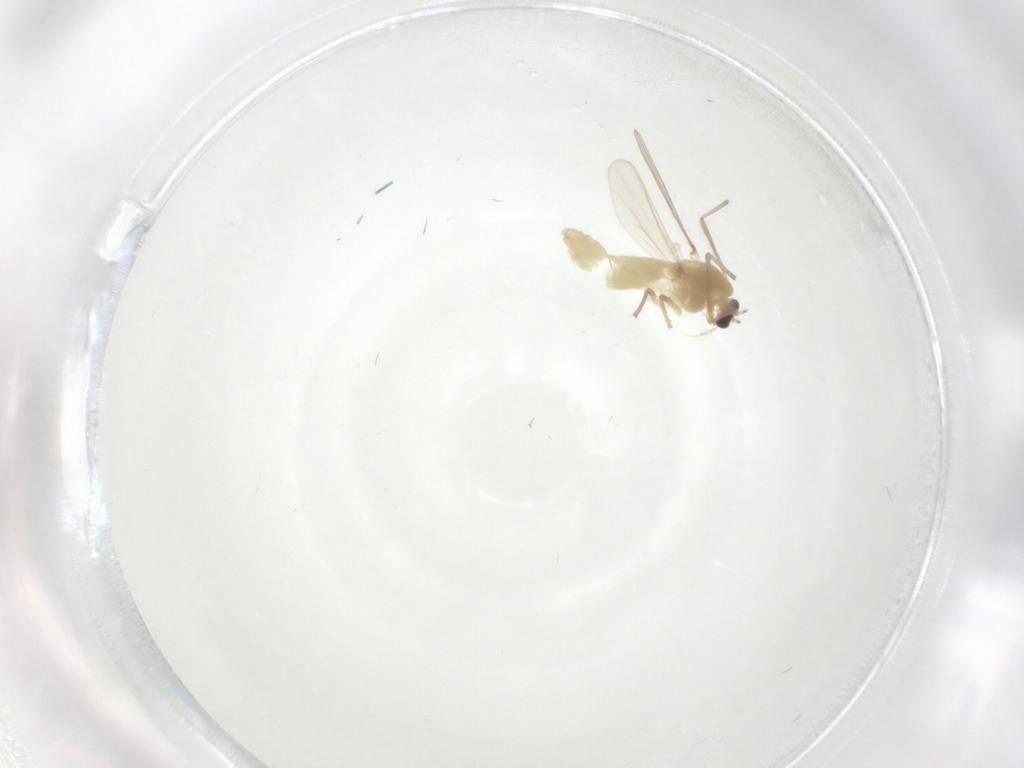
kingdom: Animalia
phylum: Arthropoda
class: Insecta
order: Diptera
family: Drosophilidae
